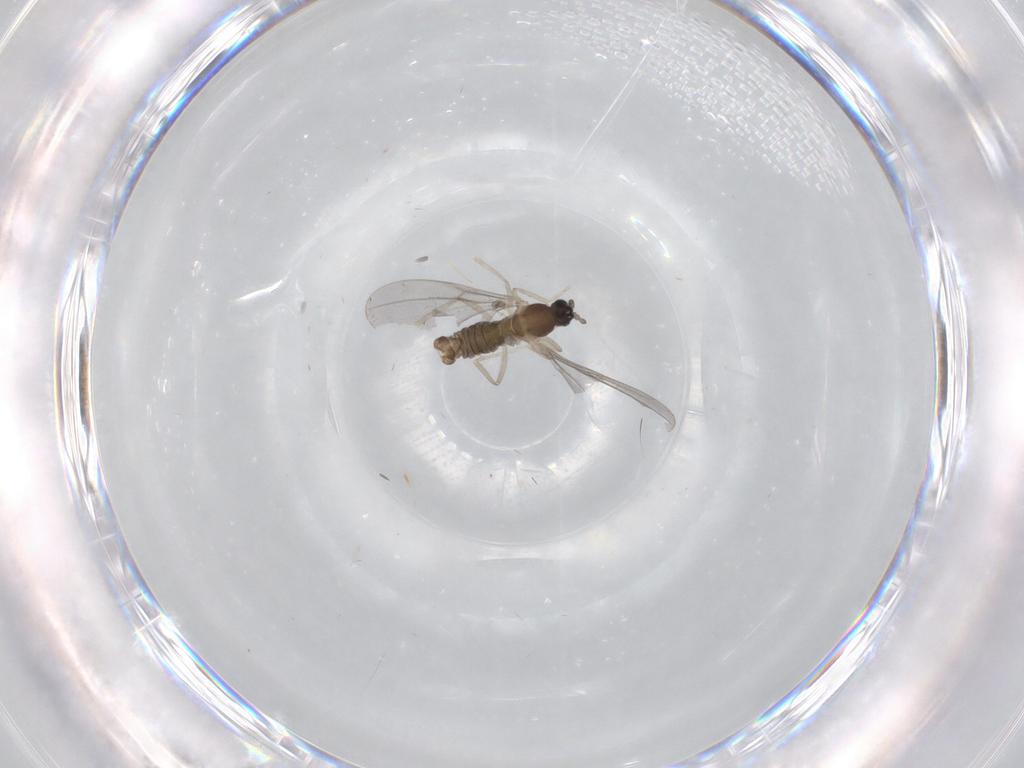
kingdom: Animalia
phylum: Arthropoda
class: Insecta
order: Diptera
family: Cecidomyiidae
